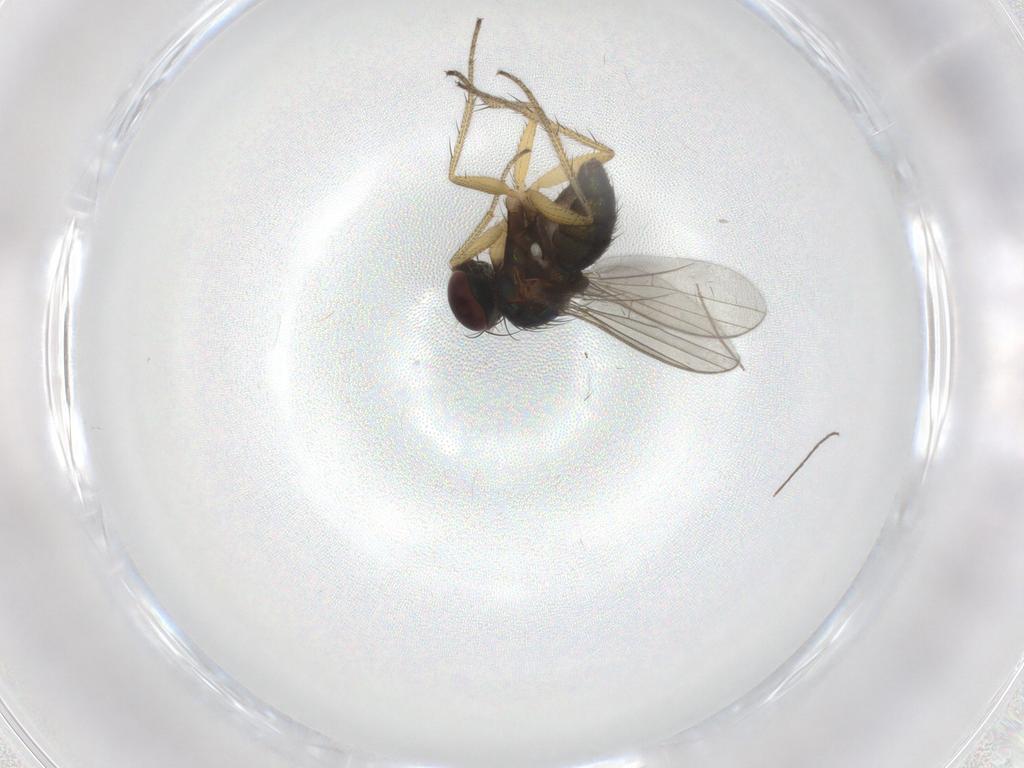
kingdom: Animalia
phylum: Arthropoda
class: Insecta
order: Diptera
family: Chironomidae
